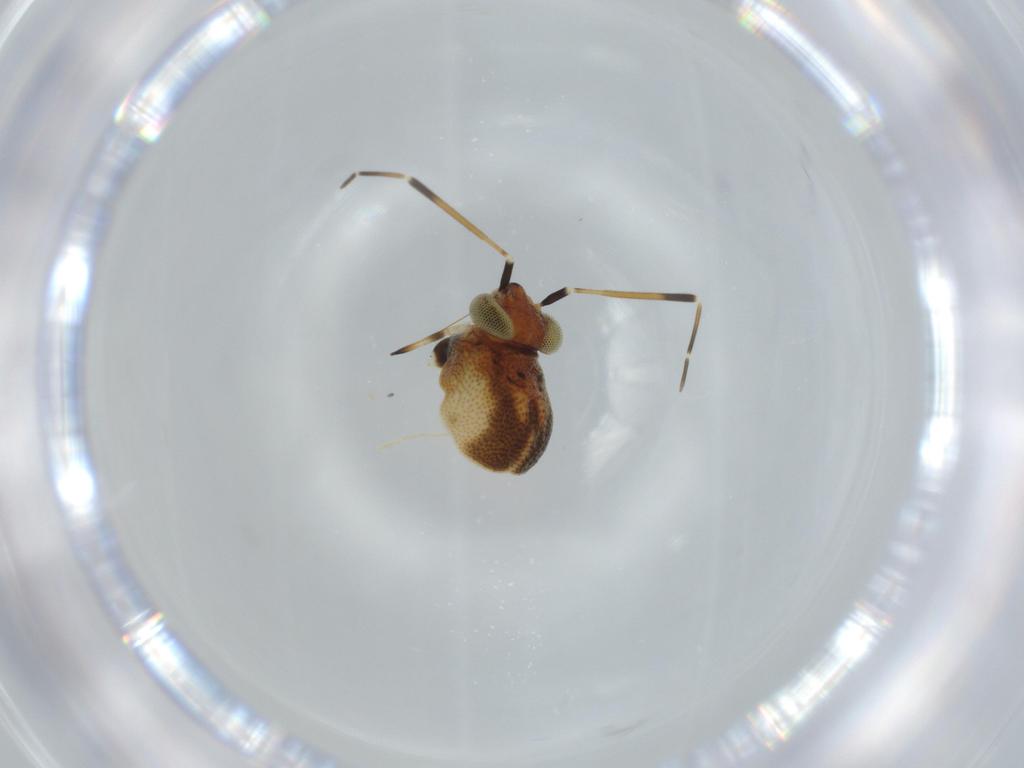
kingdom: Animalia
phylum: Arthropoda
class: Insecta
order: Hemiptera
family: Miridae
